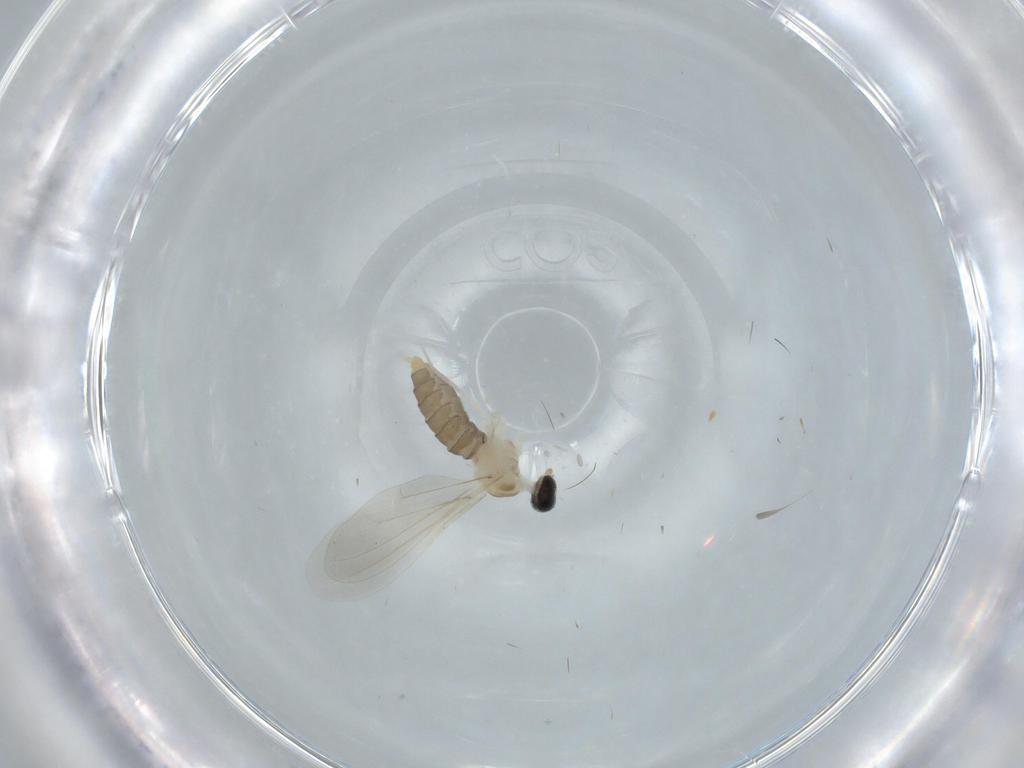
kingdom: Animalia
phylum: Arthropoda
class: Insecta
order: Diptera
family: Cecidomyiidae
